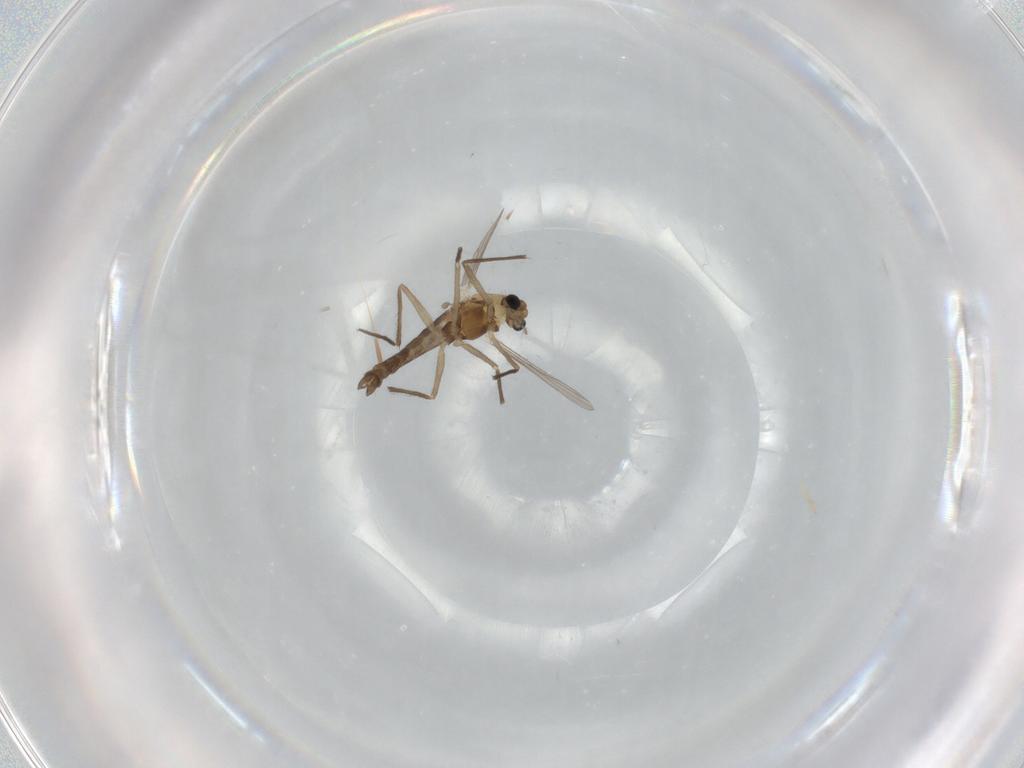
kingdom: Animalia
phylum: Arthropoda
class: Insecta
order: Diptera
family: Chironomidae
